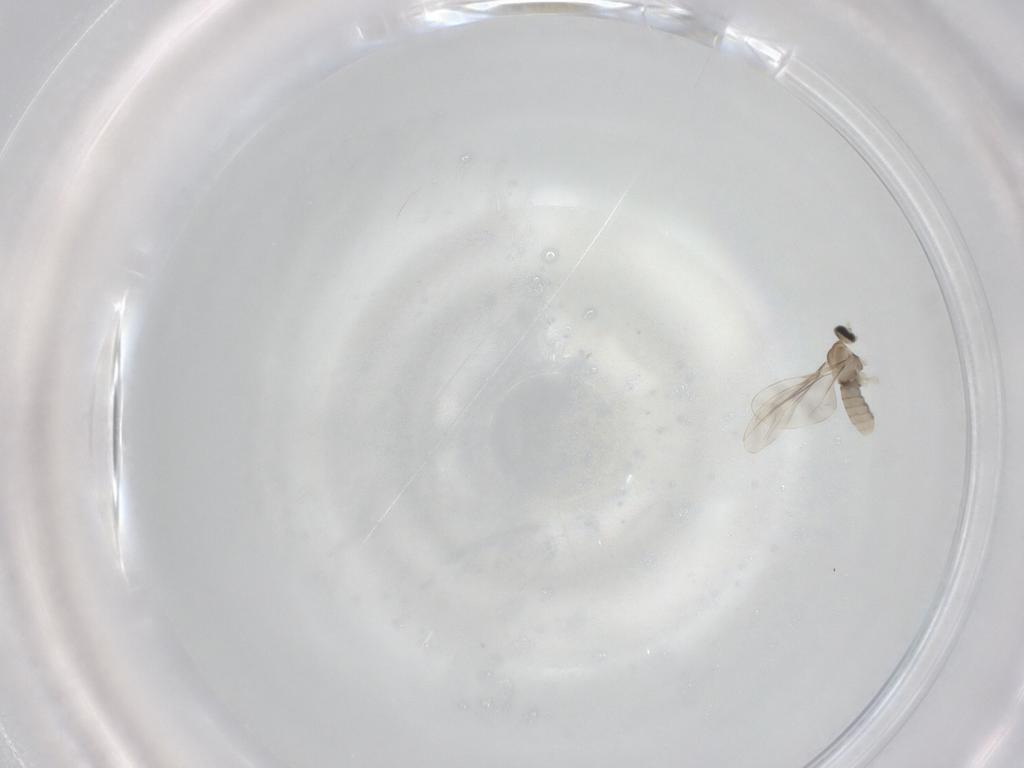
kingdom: Animalia
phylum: Arthropoda
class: Insecta
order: Diptera
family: Cecidomyiidae
